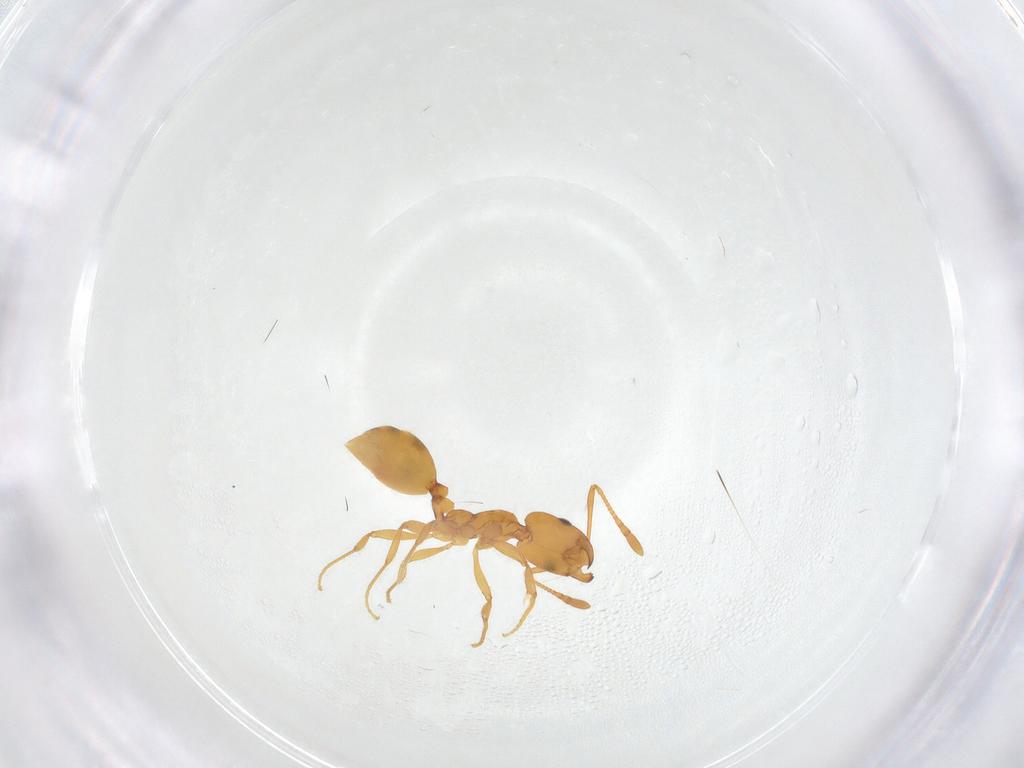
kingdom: Animalia
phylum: Arthropoda
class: Insecta
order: Hymenoptera
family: Formicidae
